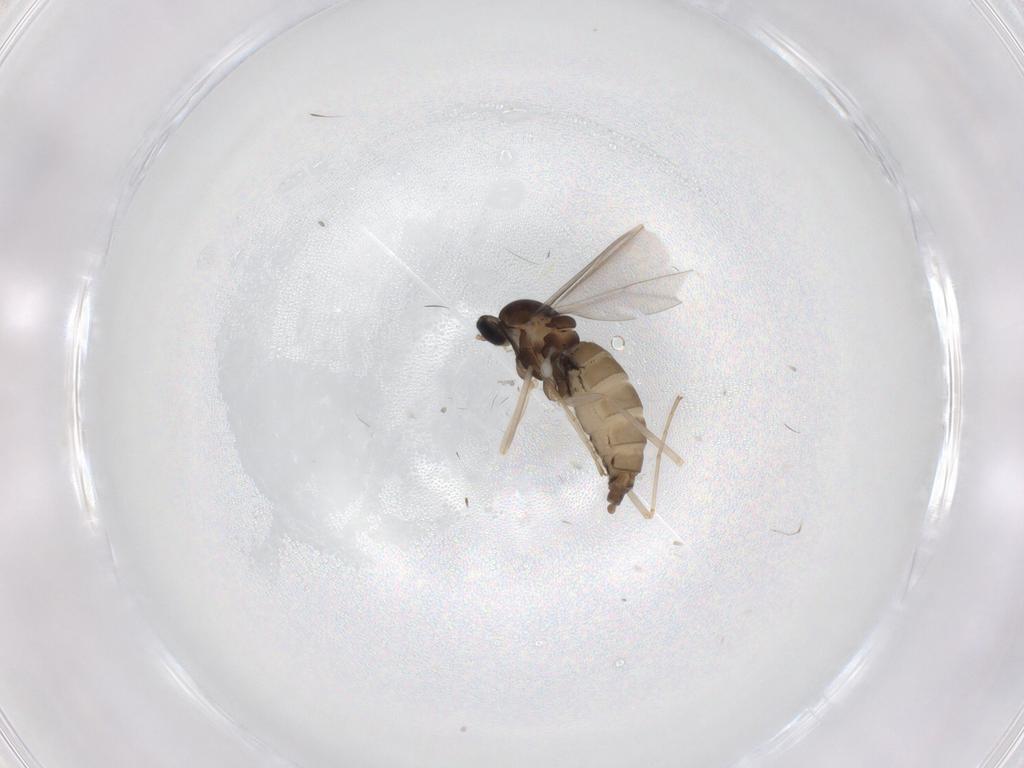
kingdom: Animalia
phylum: Arthropoda
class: Insecta
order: Diptera
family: Cecidomyiidae
